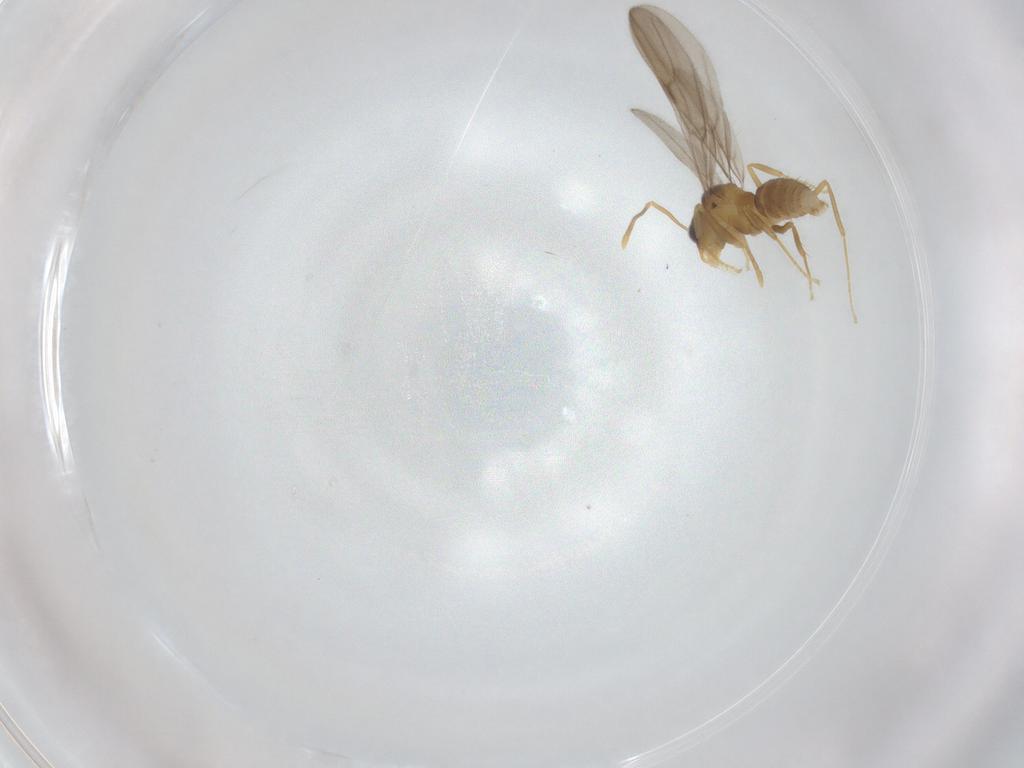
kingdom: Animalia
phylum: Arthropoda
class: Insecta
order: Hymenoptera
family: Formicidae
